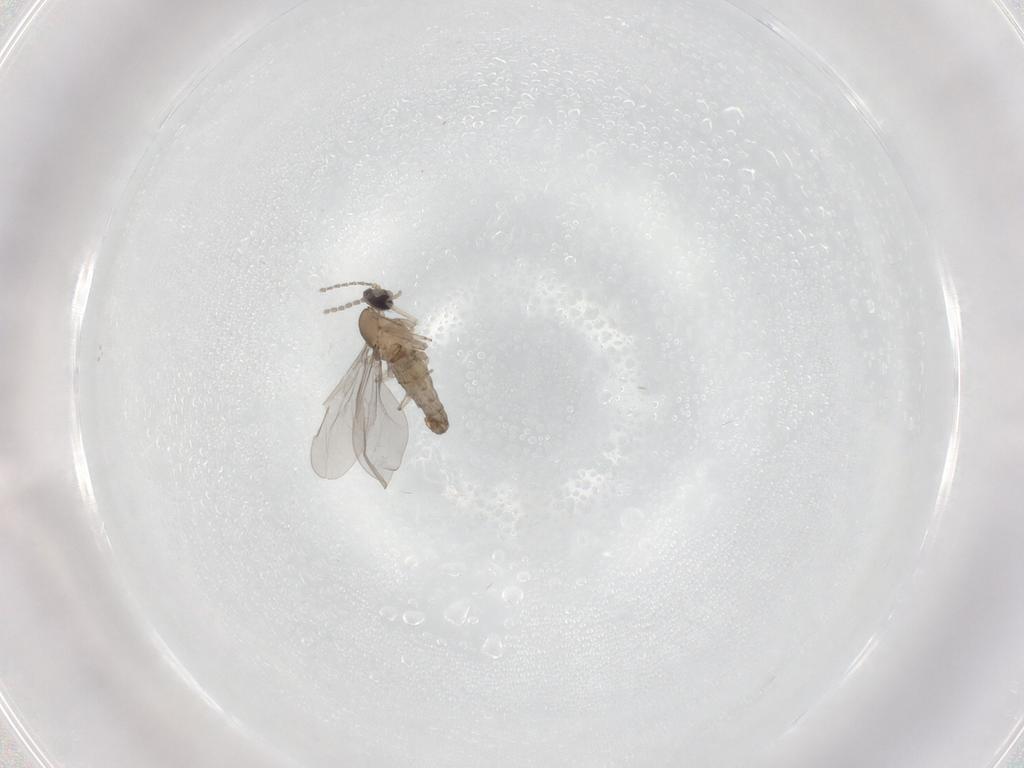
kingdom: Animalia
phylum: Arthropoda
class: Insecta
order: Diptera
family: Cecidomyiidae
